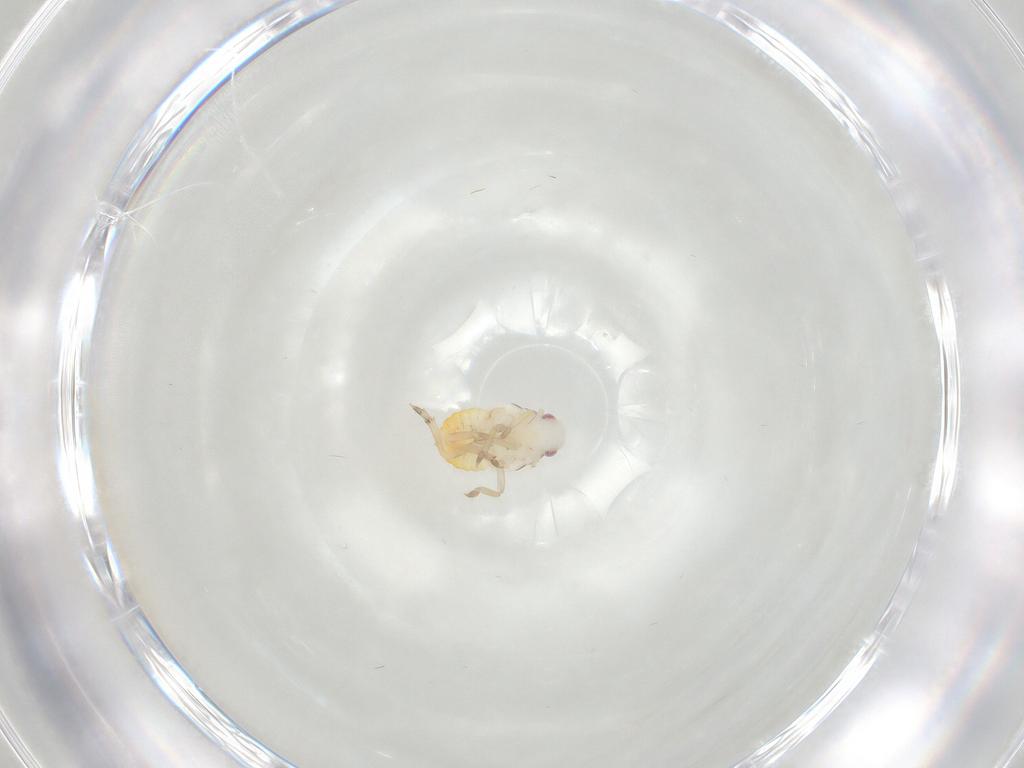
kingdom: Animalia
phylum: Arthropoda
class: Insecta
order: Hemiptera
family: Flatidae
